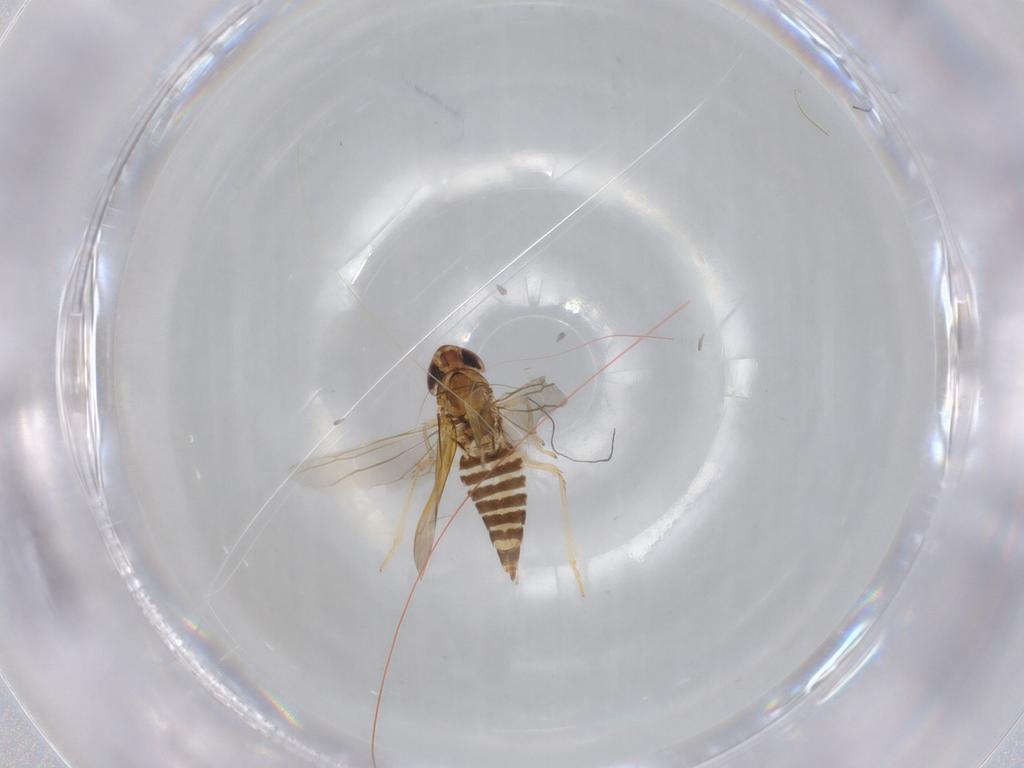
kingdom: Animalia
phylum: Arthropoda
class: Insecta
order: Hemiptera
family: Cicadellidae
